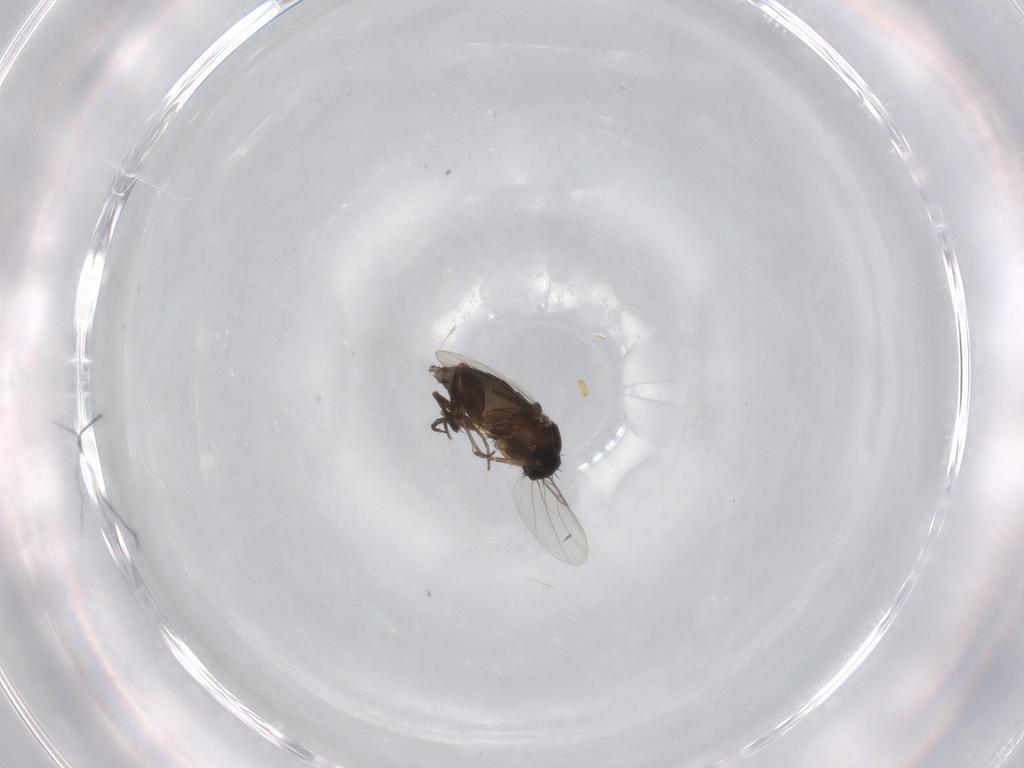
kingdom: Animalia
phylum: Arthropoda
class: Insecta
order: Diptera
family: Phoridae
